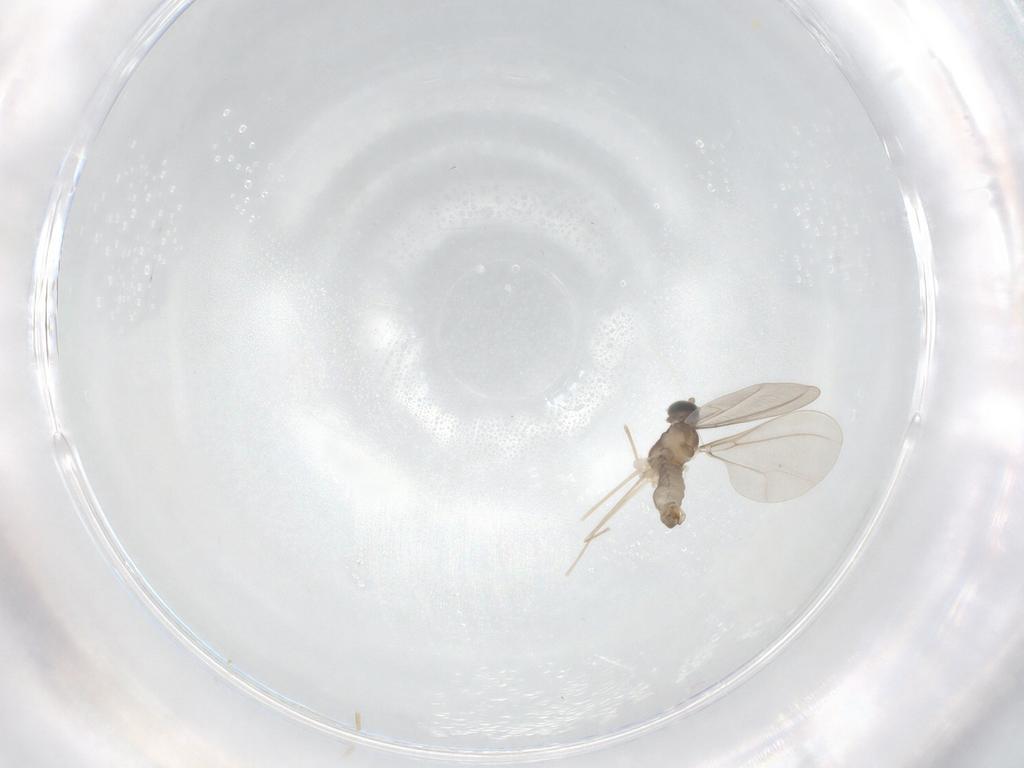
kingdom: Animalia
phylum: Arthropoda
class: Insecta
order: Diptera
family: Cecidomyiidae
